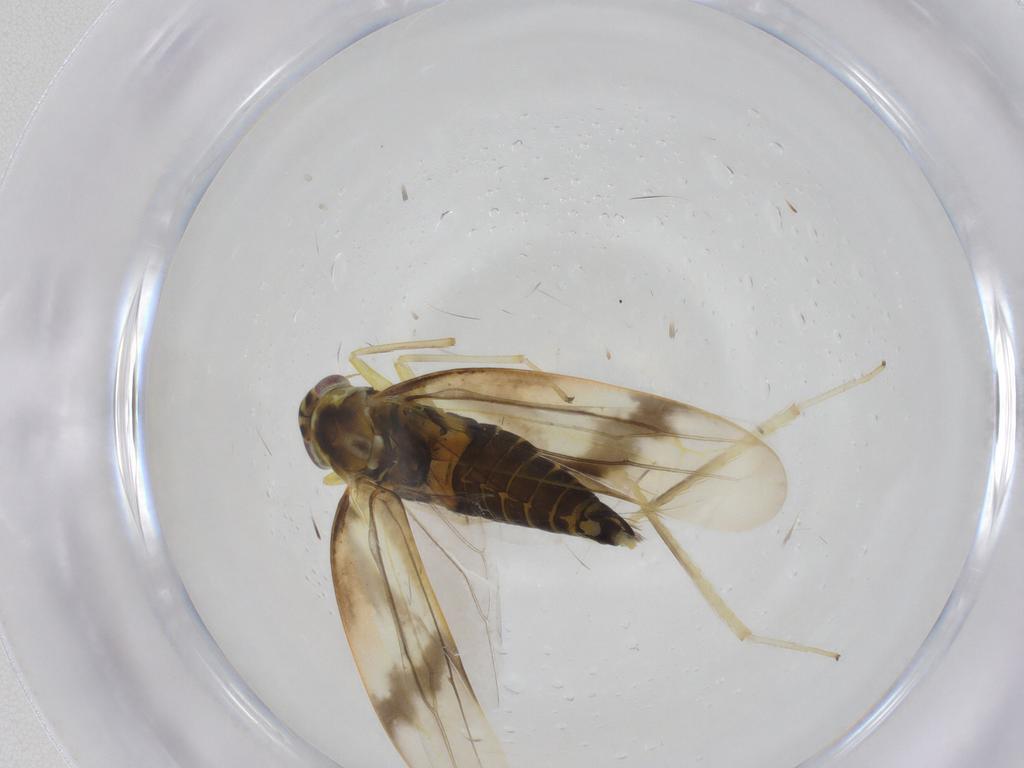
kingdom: Animalia
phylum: Arthropoda
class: Insecta
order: Hemiptera
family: Cicadellidae
